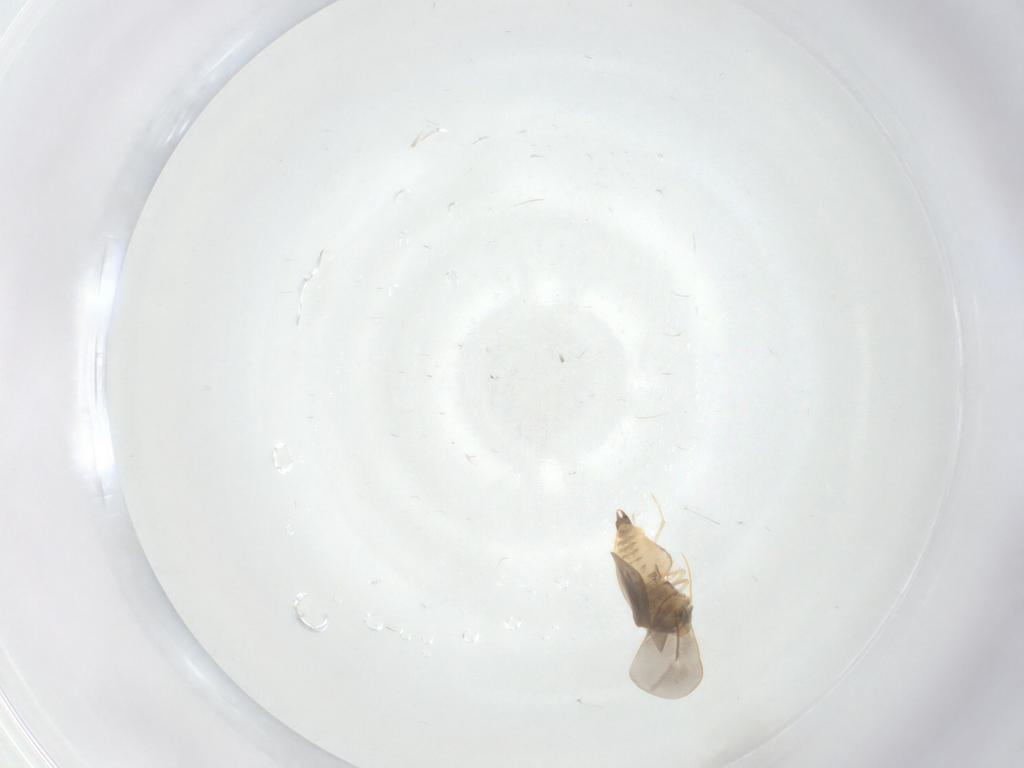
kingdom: Animalia
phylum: Arthropoda
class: Insecta
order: Hemiptera
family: Aleyrodidae
